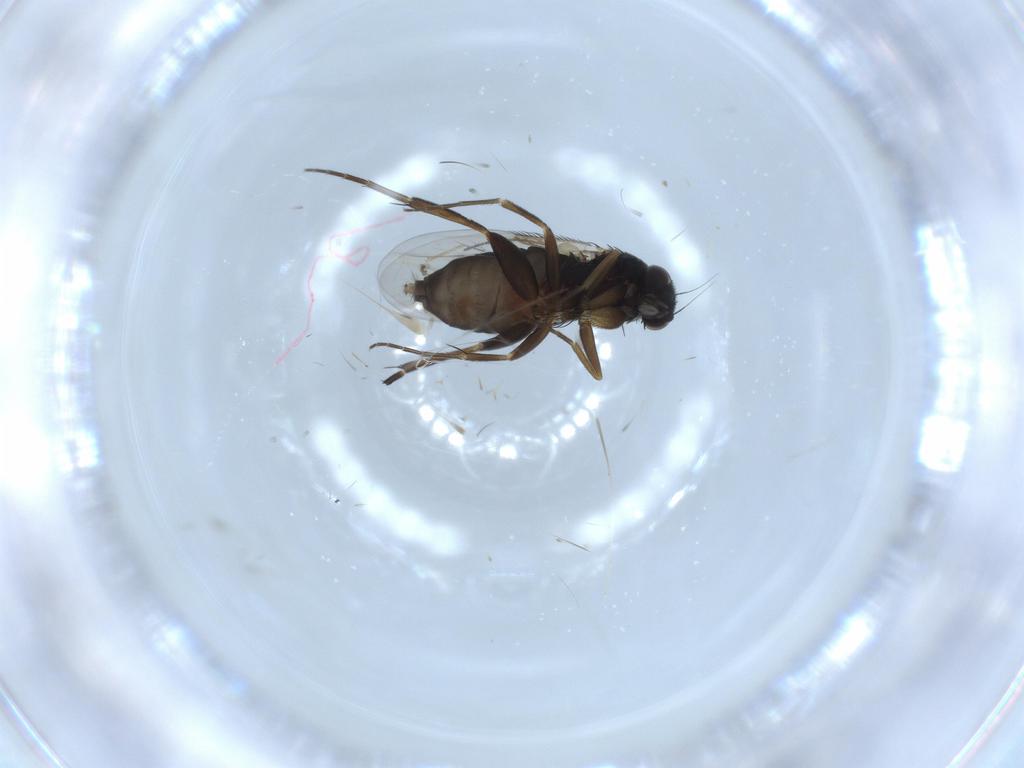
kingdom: Animalia
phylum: Arthropoda
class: Insecta
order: Diptera
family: Phoridae
